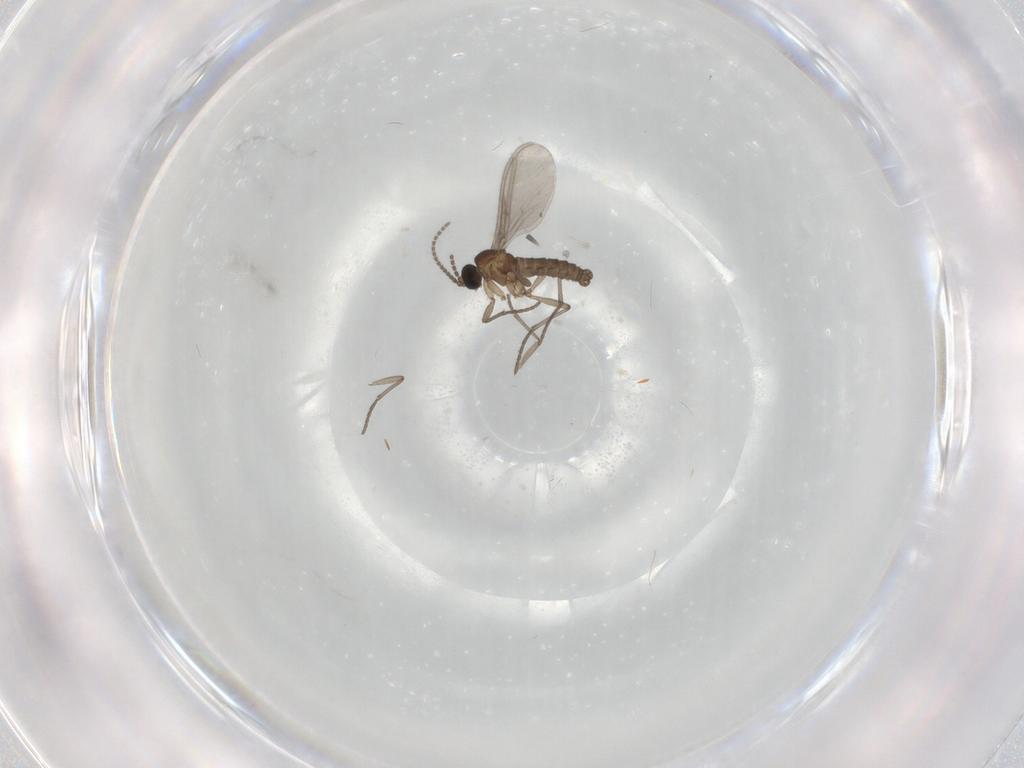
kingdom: Animalia
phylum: Arthropoda
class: Insecta
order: Diptera
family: Sciaridae
